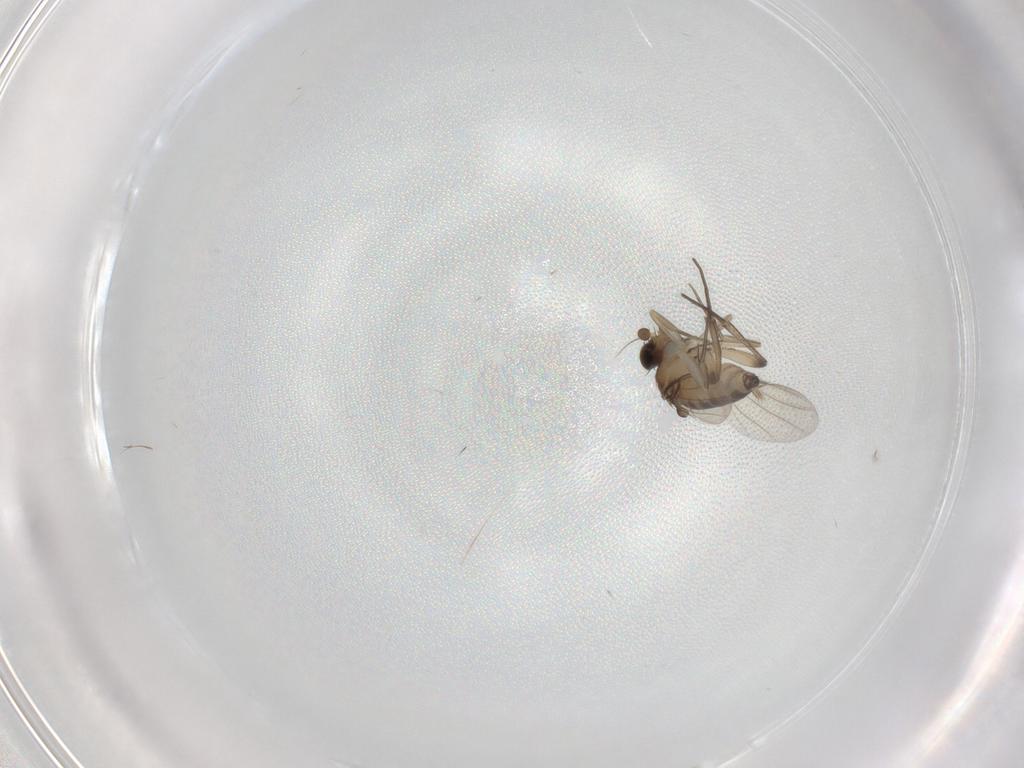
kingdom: Animalia
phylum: Arthropoda
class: Insecta
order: Diptera
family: Phoridae
